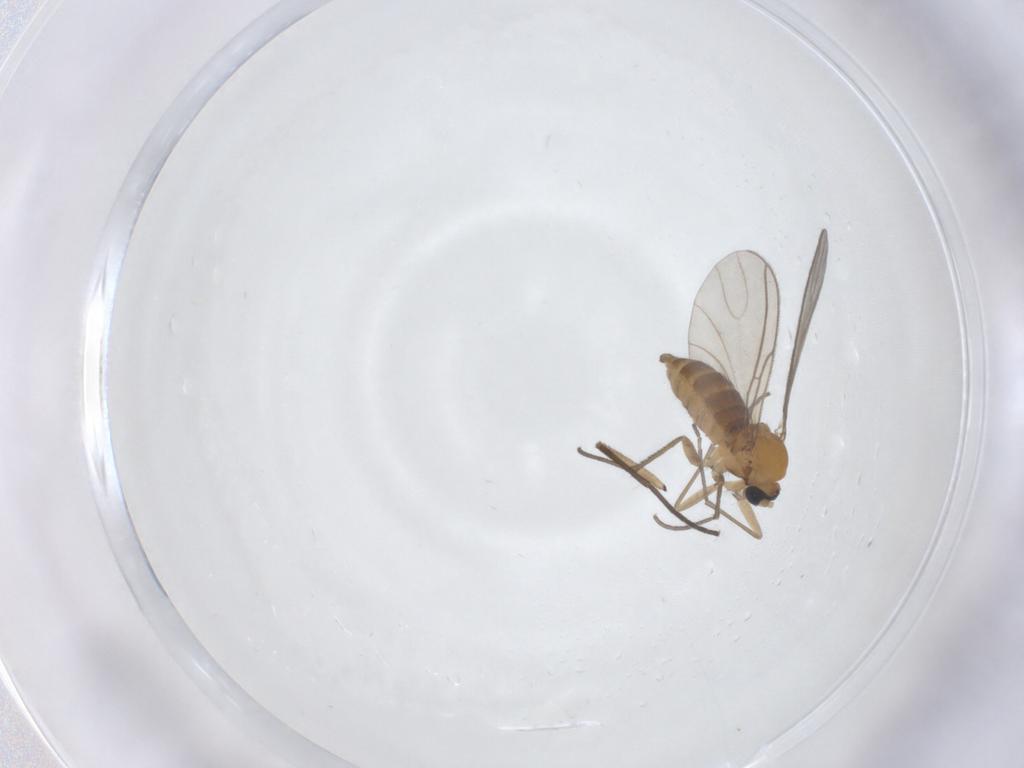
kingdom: Animalia
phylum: Arthropoda
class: Insecta
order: Diptera
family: Sciaridae
